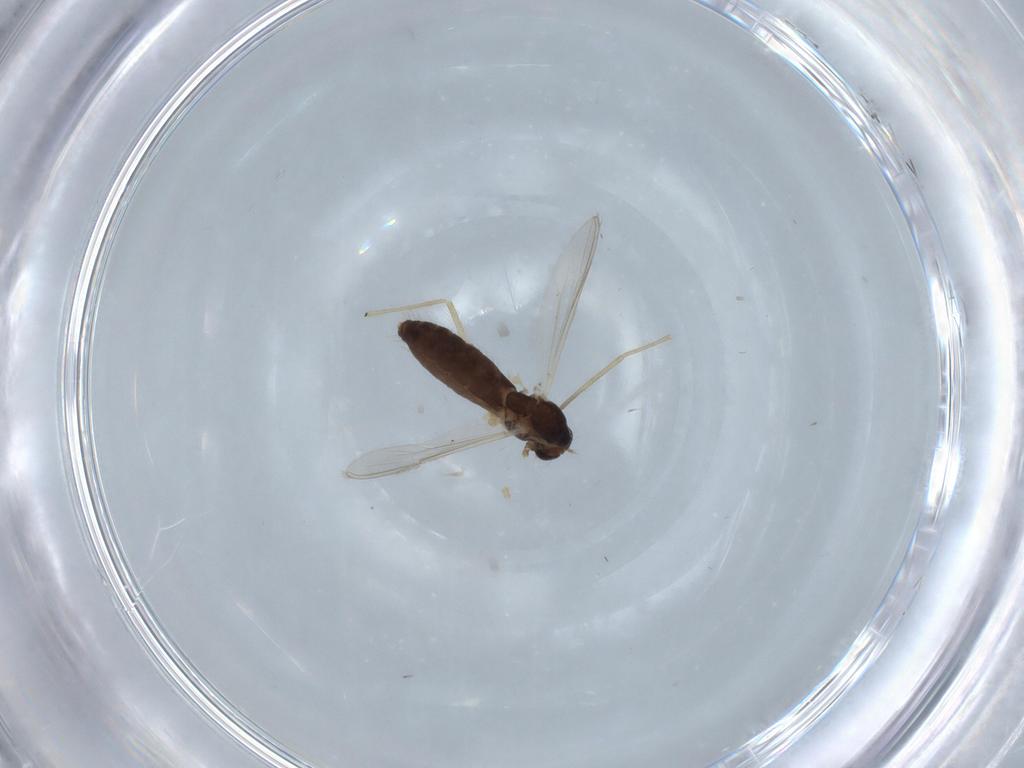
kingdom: Animalia
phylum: Arthropoda
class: Insecta
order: Diptera
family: Chironomidae
